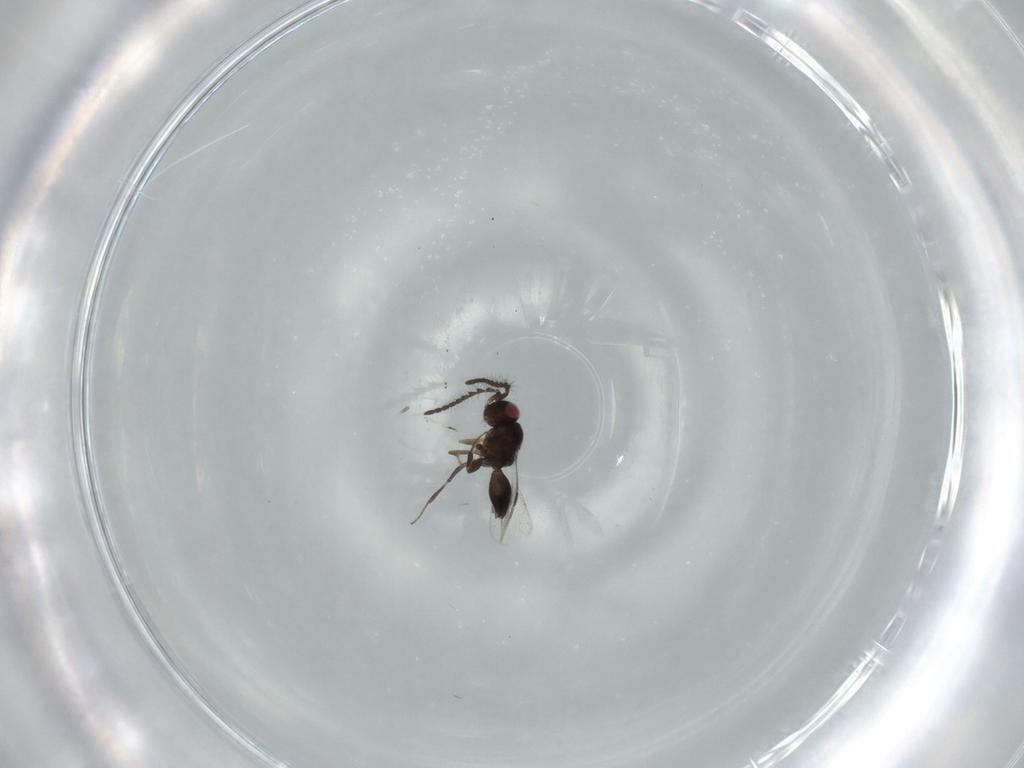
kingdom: Animalia
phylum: Arthropoda
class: Insecta
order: Hymenoptera
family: Megaspilidae
